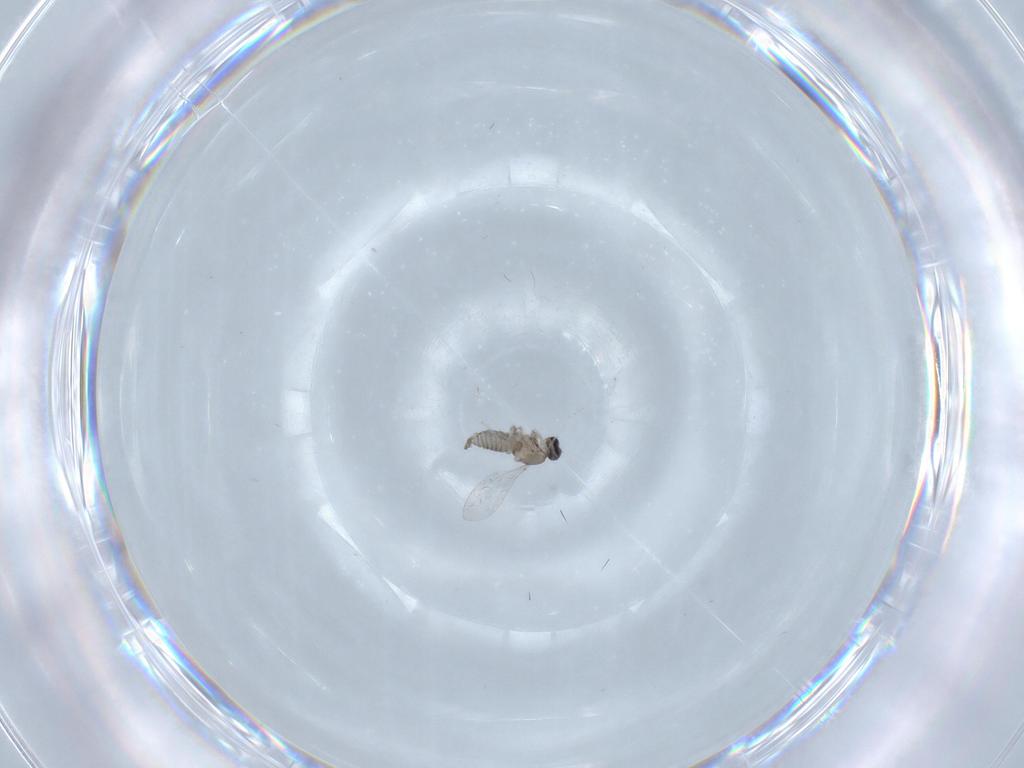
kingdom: Animalia
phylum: Arthropoda
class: Insecta
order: Diptera
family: Cecidomyiidae
